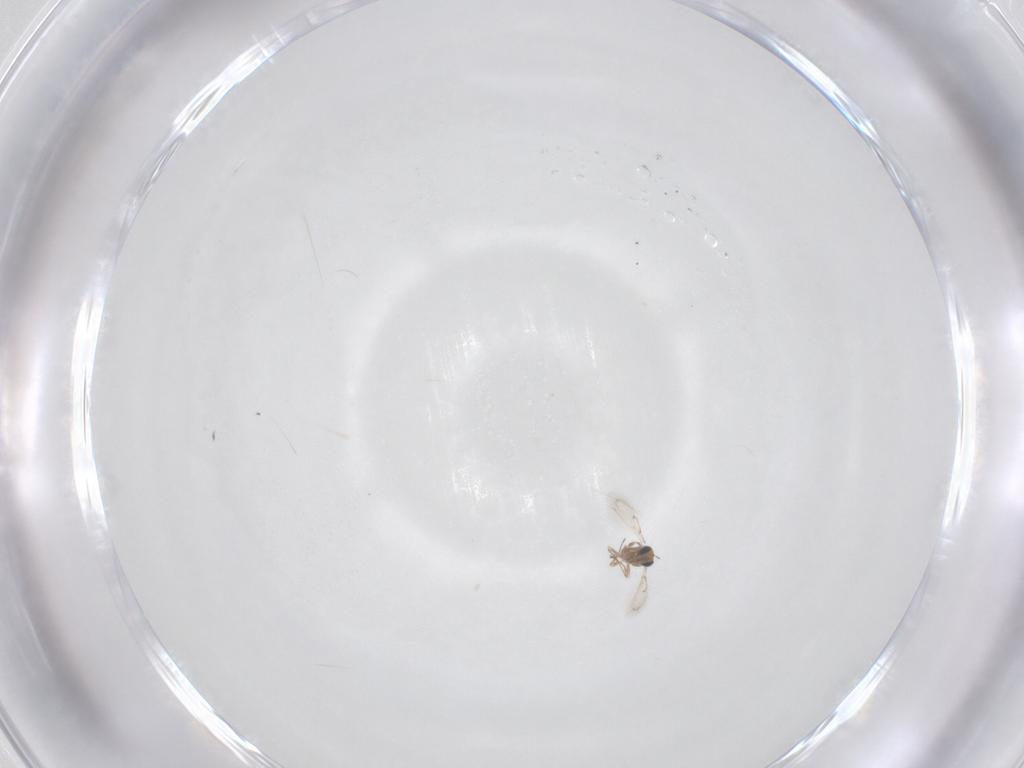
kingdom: Animalia
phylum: Arthropoda
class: Insecta
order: Hymenoptera
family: Trichogrammatidae
